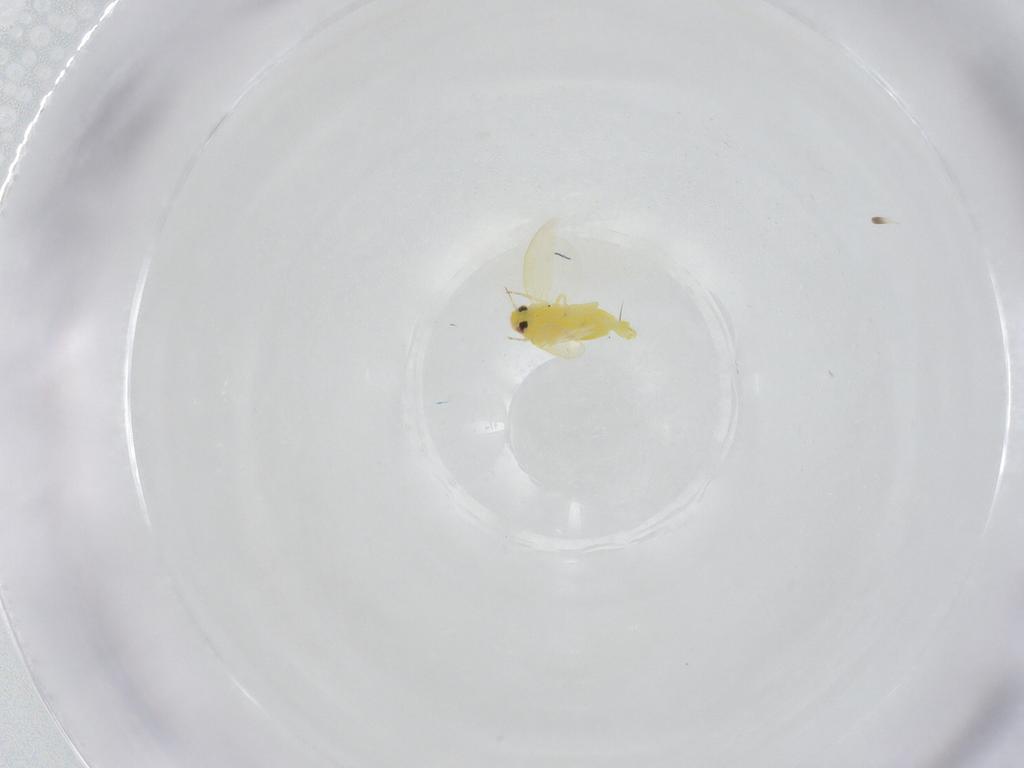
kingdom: Animalia
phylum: Arthropoda
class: Insecta
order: Hemiptera
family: Aleyrodidae
